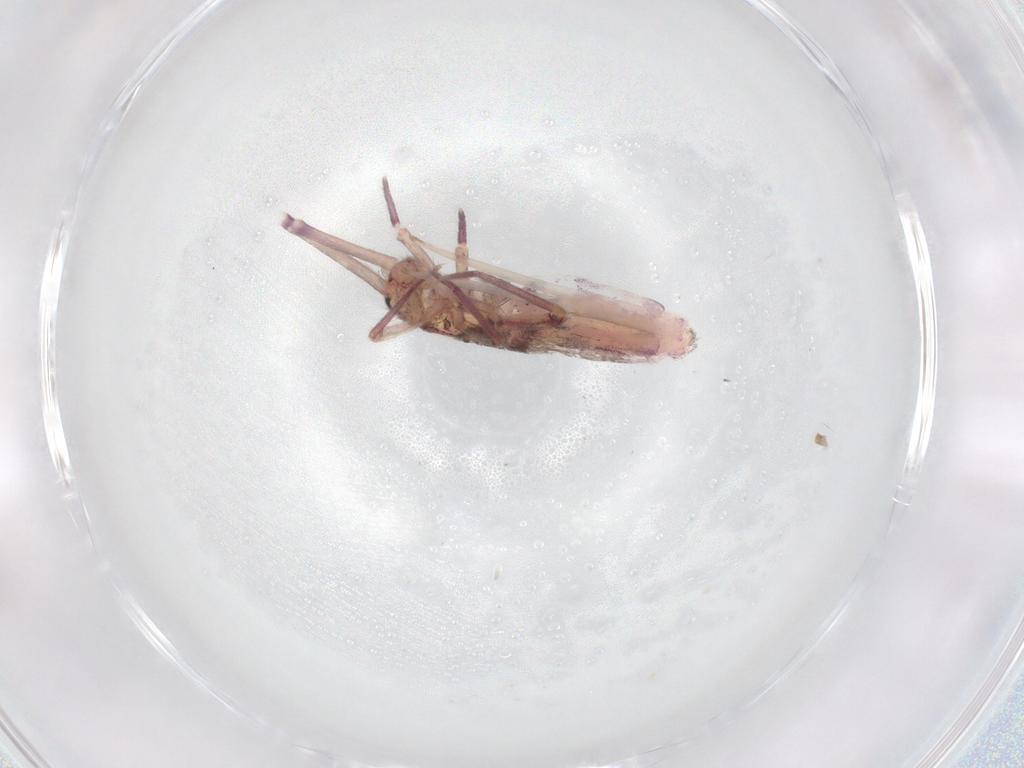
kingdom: Animalia
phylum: Arthropoda
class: Collembola
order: Entomobryomorpha
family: Entomobryidae
